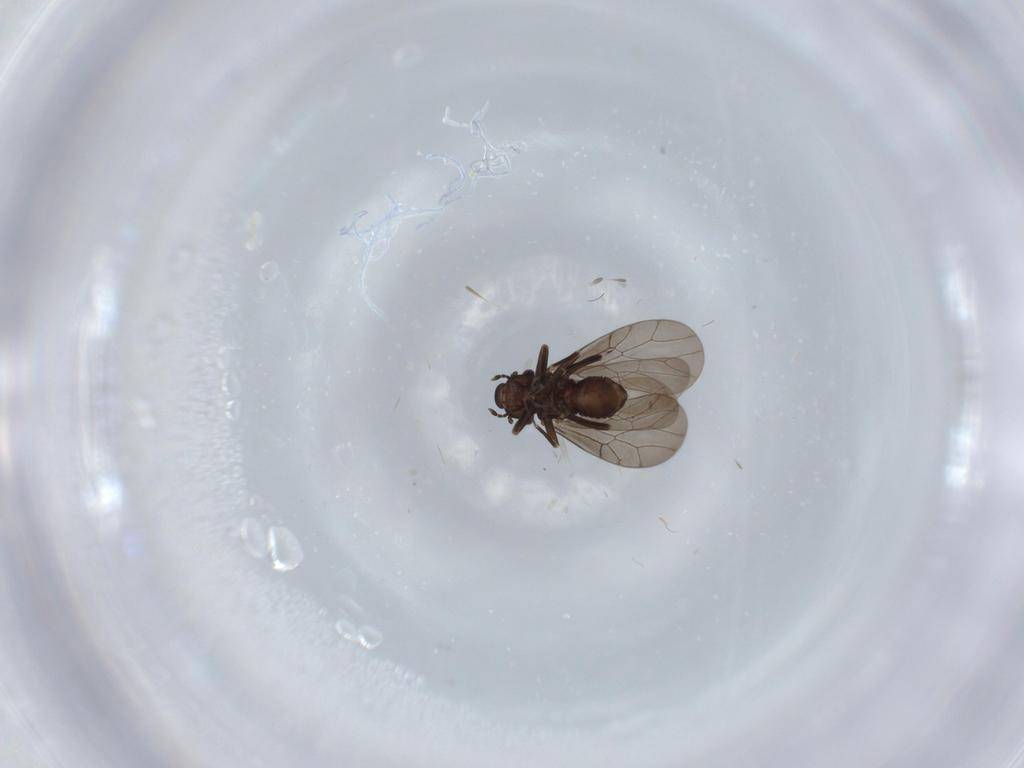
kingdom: Animalia
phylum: Arthropoda
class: Insecta
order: Psocodea
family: Lepidopsocidae
